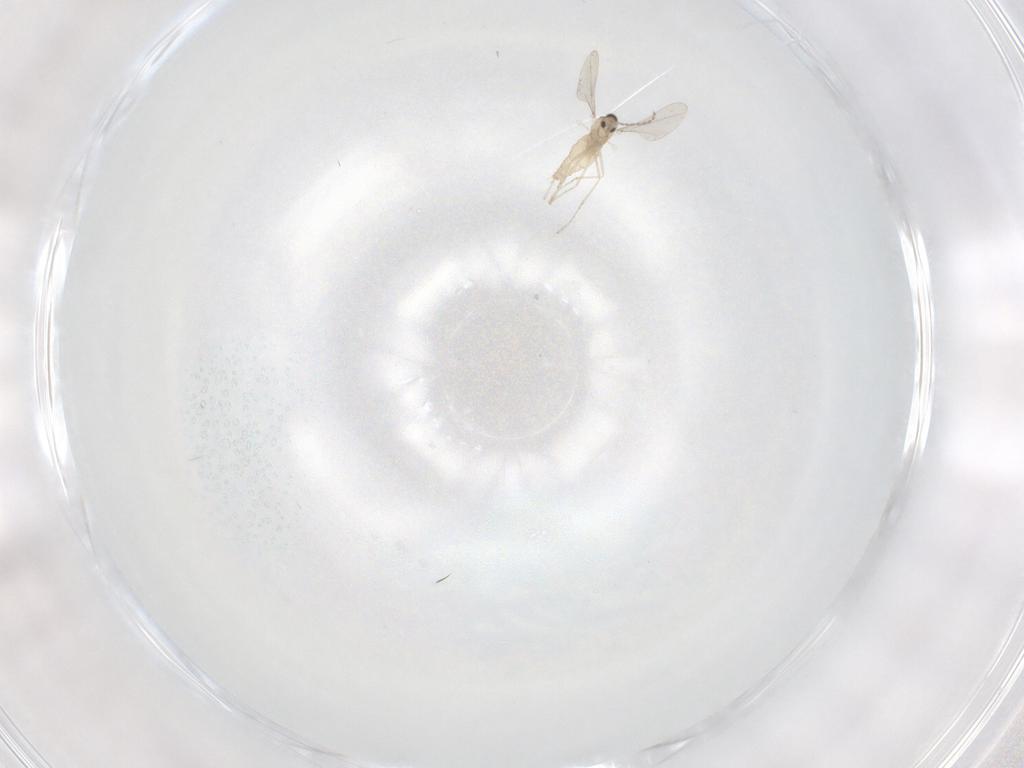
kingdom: Animalia
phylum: Arthropoda
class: Insecta
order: Diptera
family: Cecidomyiidae
